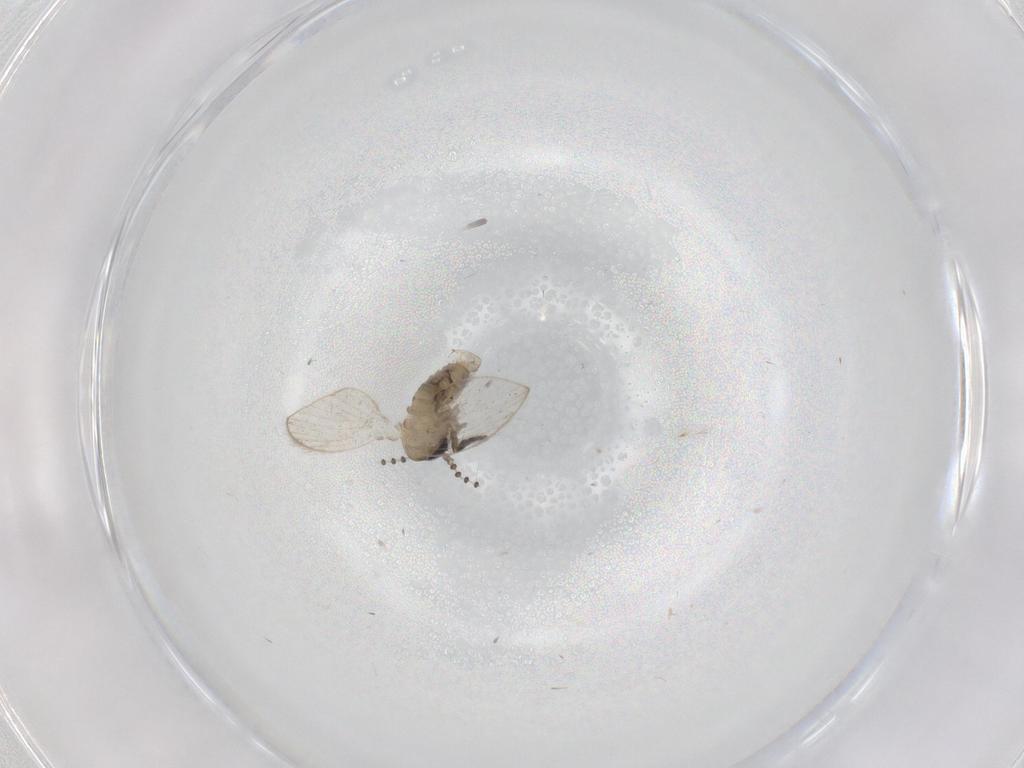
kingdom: Animalia
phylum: Arthropoda
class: Insecta
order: Diptera
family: Psychodidae
